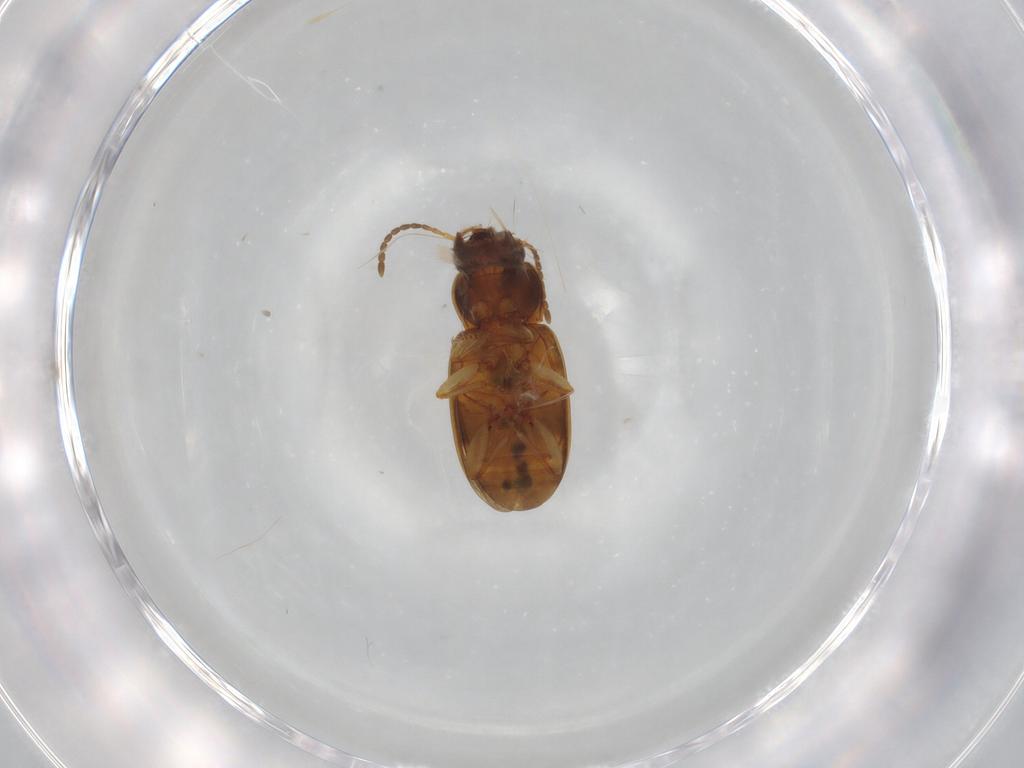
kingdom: Animalia
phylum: Arthropoda
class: Insecta
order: Coleoptera
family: Carabidae
